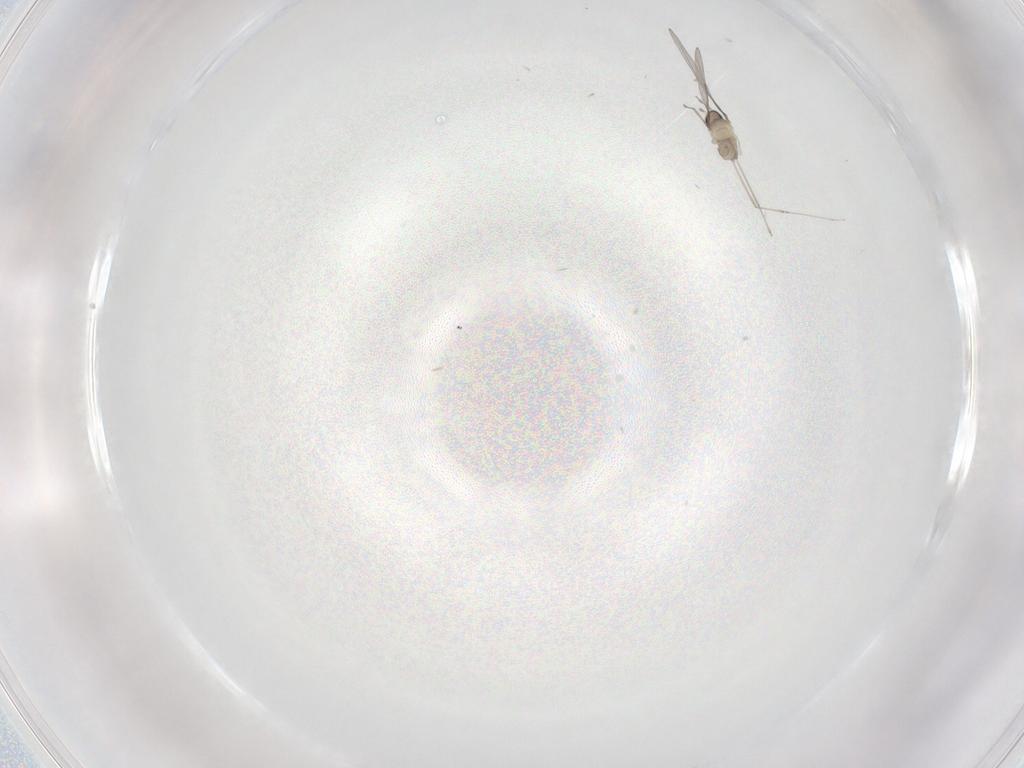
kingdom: Animalia
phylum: Arthropoda
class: Insecta
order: Diptera
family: Cecidomyiidae
